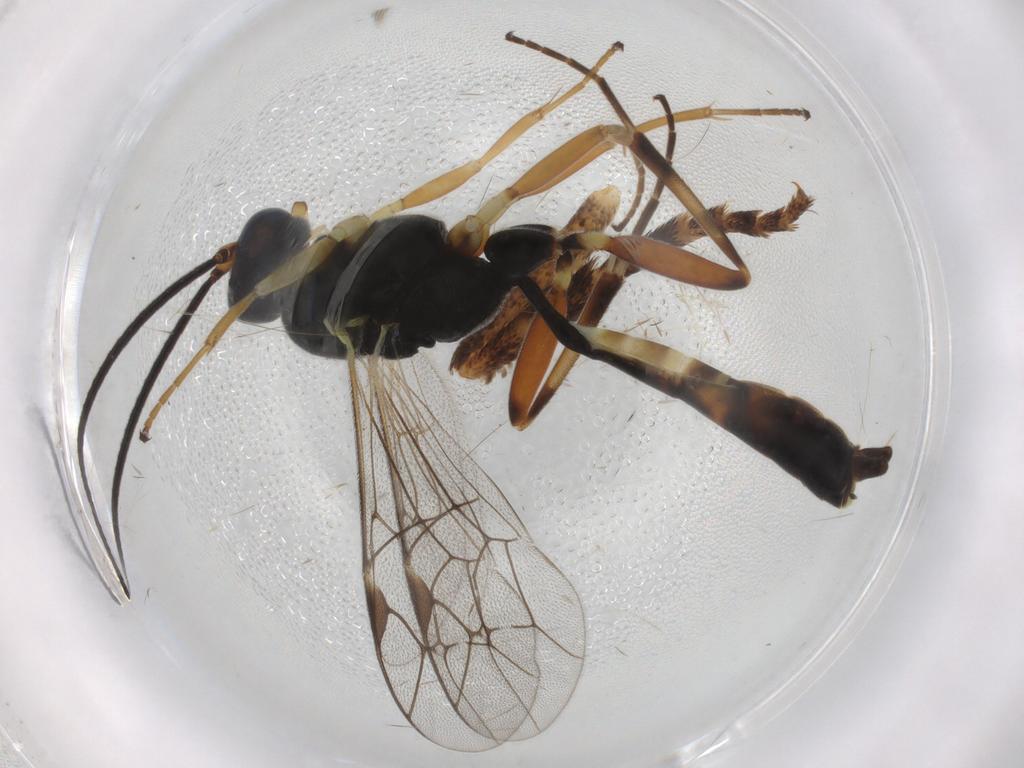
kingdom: Animalia
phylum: Arthropoda
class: Insecta
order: Hymenoptera
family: Ichneumonidae
